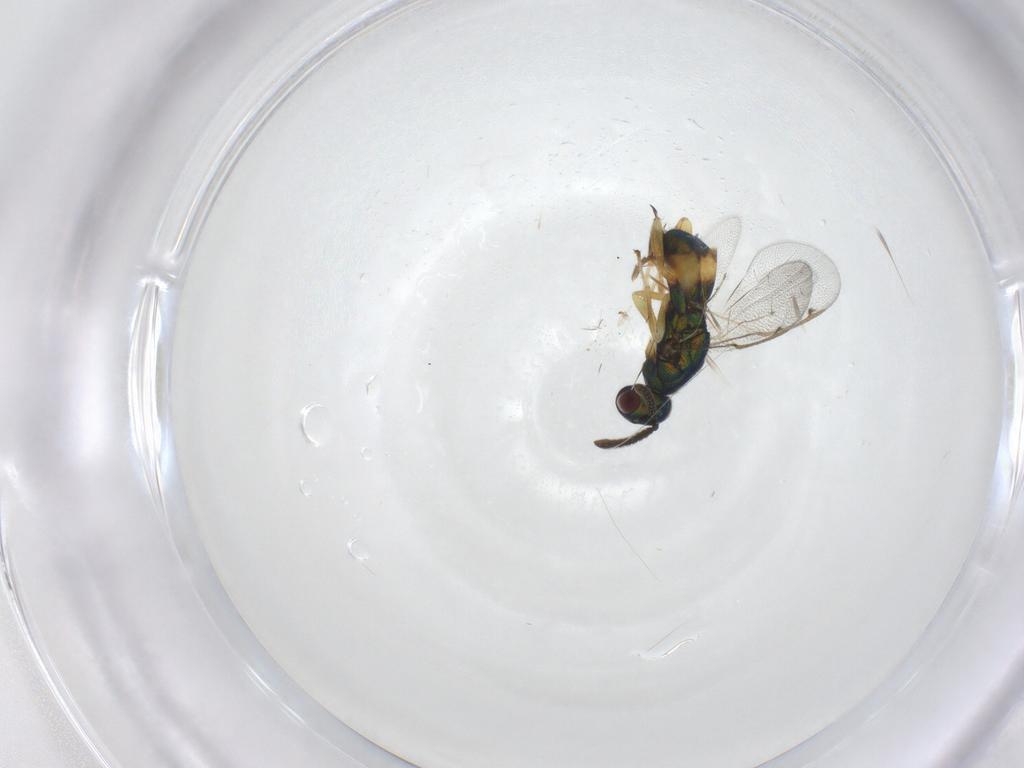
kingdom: Animalia
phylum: Arthropoda
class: Insecta
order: Hymenoptera
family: Torymidae
